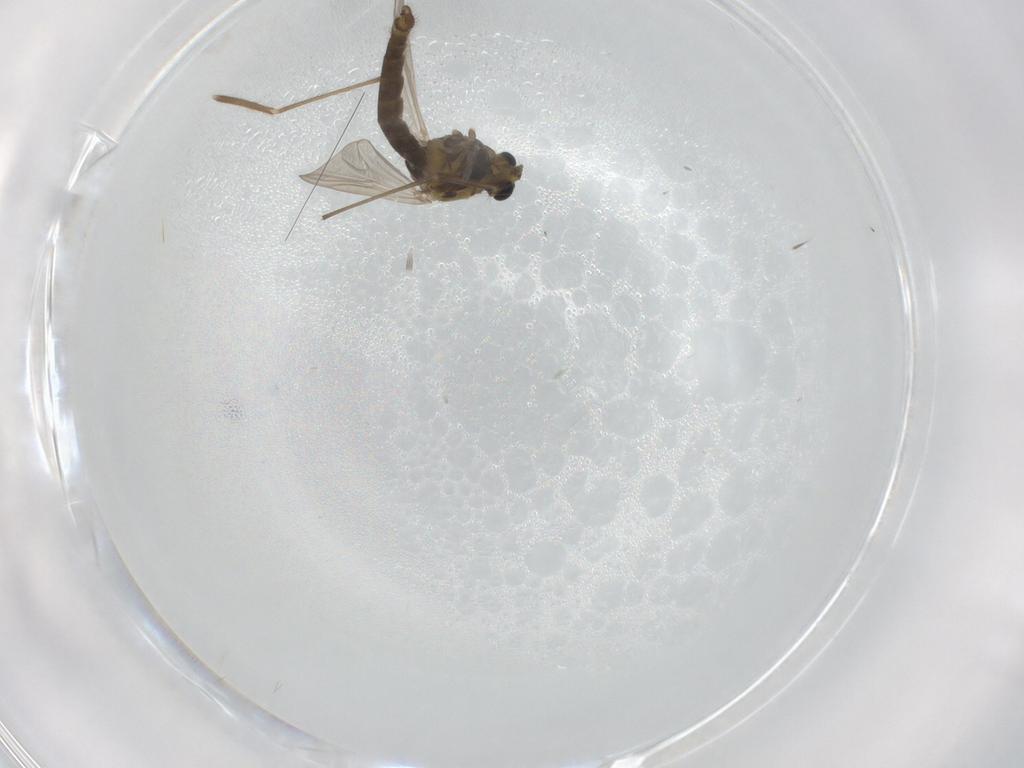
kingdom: Animalia
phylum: Arthropoda
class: Insecta
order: Diptera
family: Chironomidae
